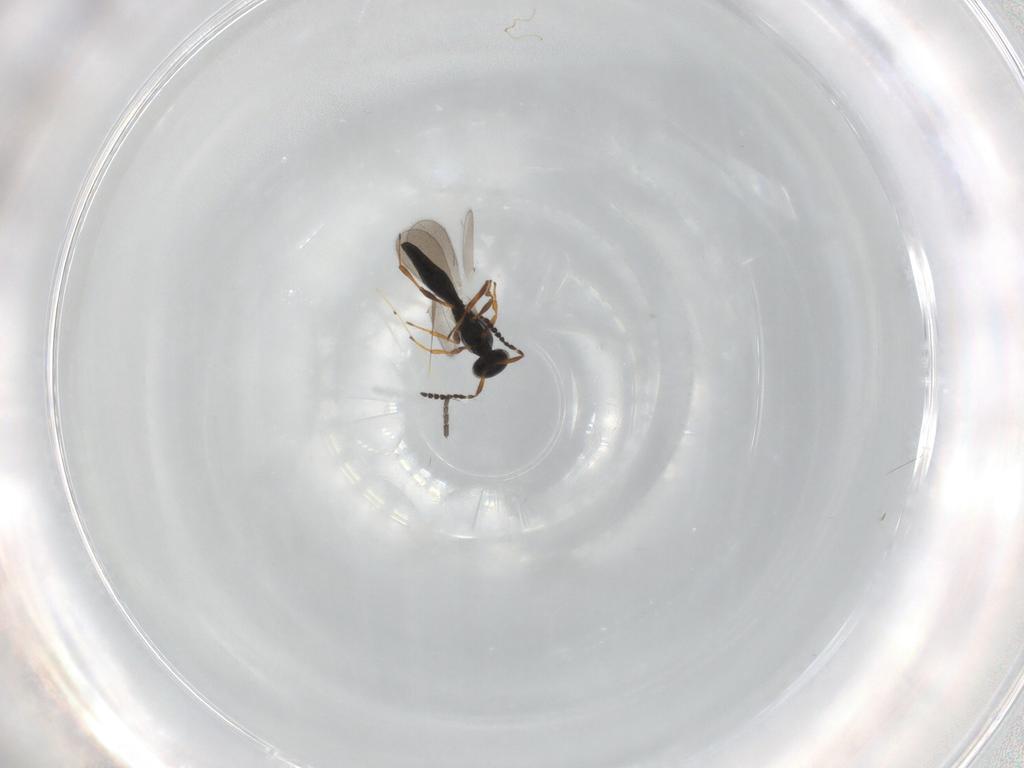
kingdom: Animalia
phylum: Arthropoda
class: Insecta
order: Hymenoptera
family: Platygastridae
